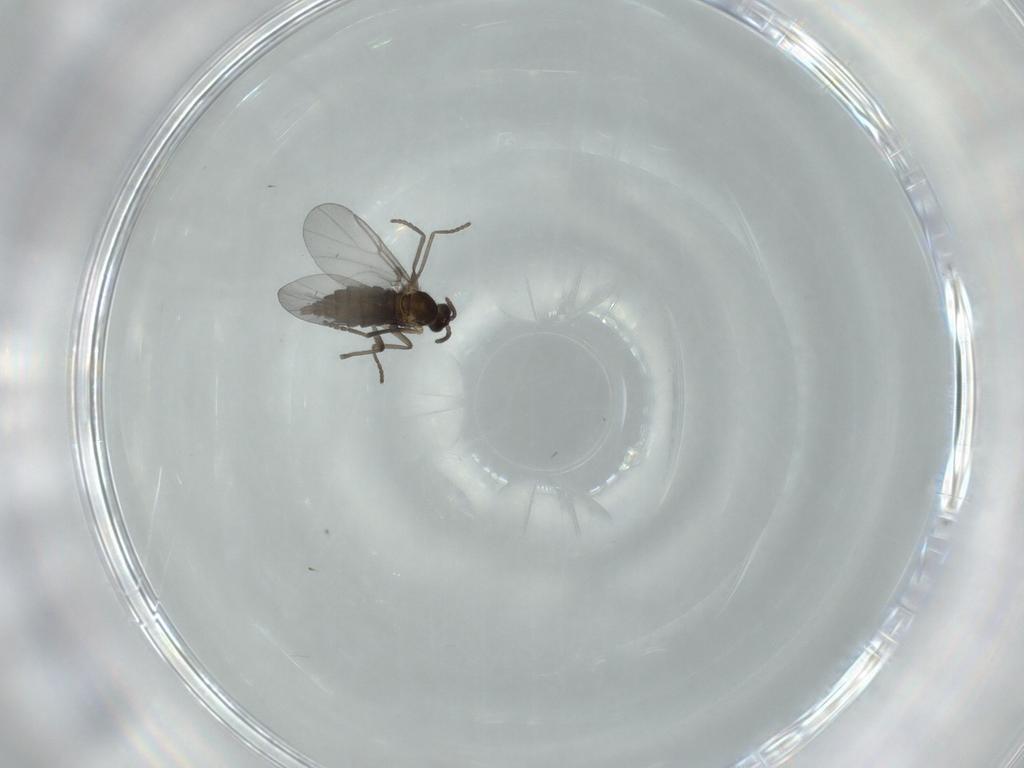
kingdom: Animalia
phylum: Arthropoda
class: Insecta
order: Diptera
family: Cecidomyiidae
